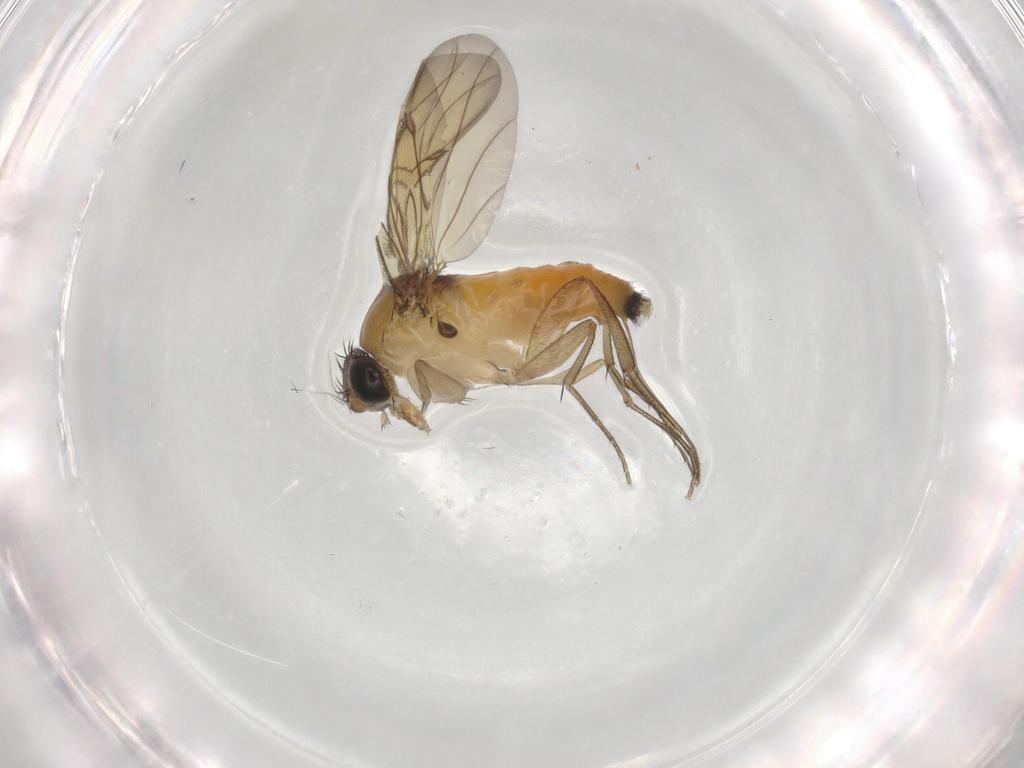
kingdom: Animalia
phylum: Arthropoda
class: Insecta
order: Diptera
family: Phoridae
